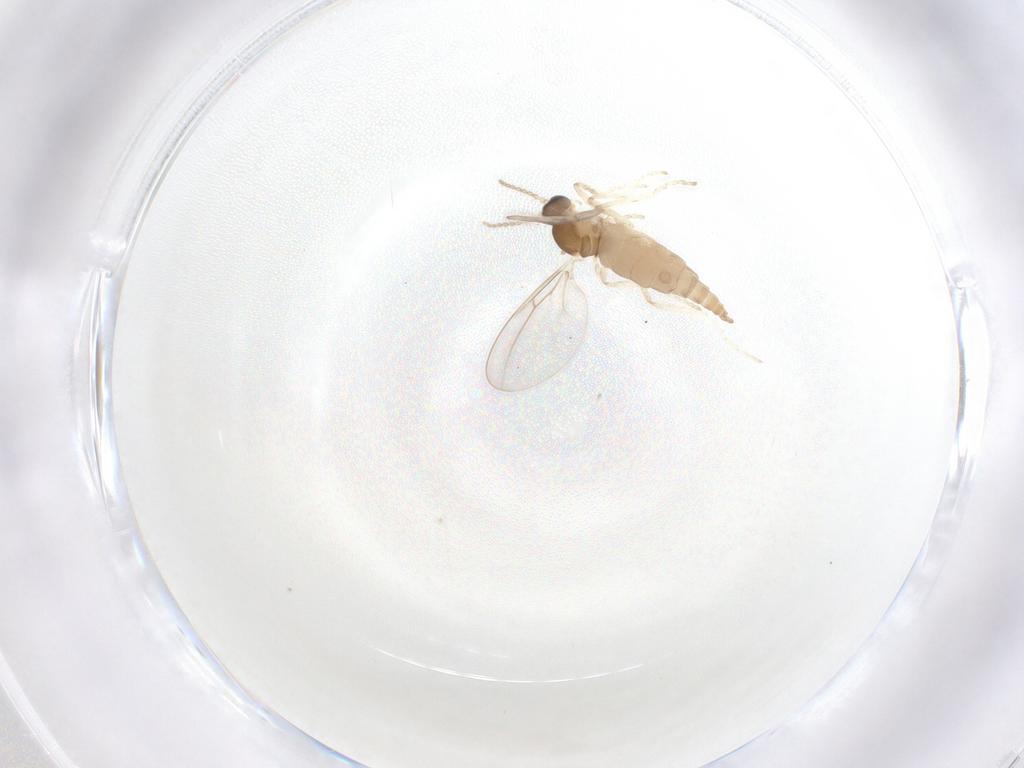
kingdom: Animalia
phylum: Arthropoda
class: Insecta
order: Diptera
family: Cecidomyiidae
